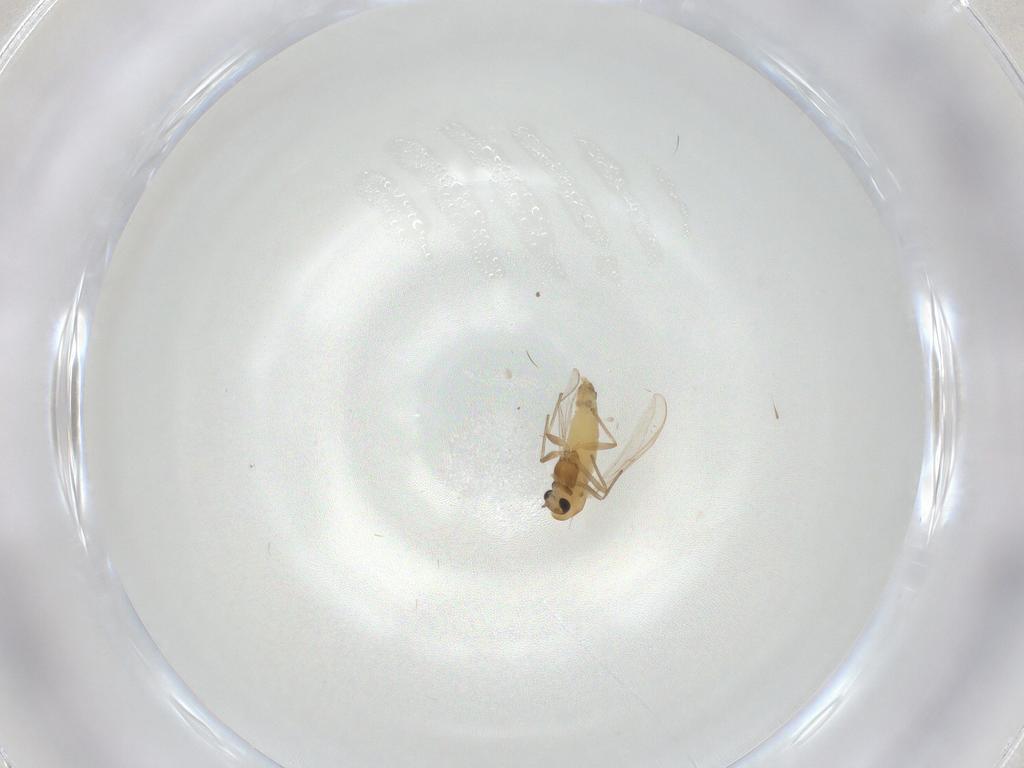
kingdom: Animalia
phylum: Arthropoda
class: Insecta
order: Diptera
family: Chironomidae
